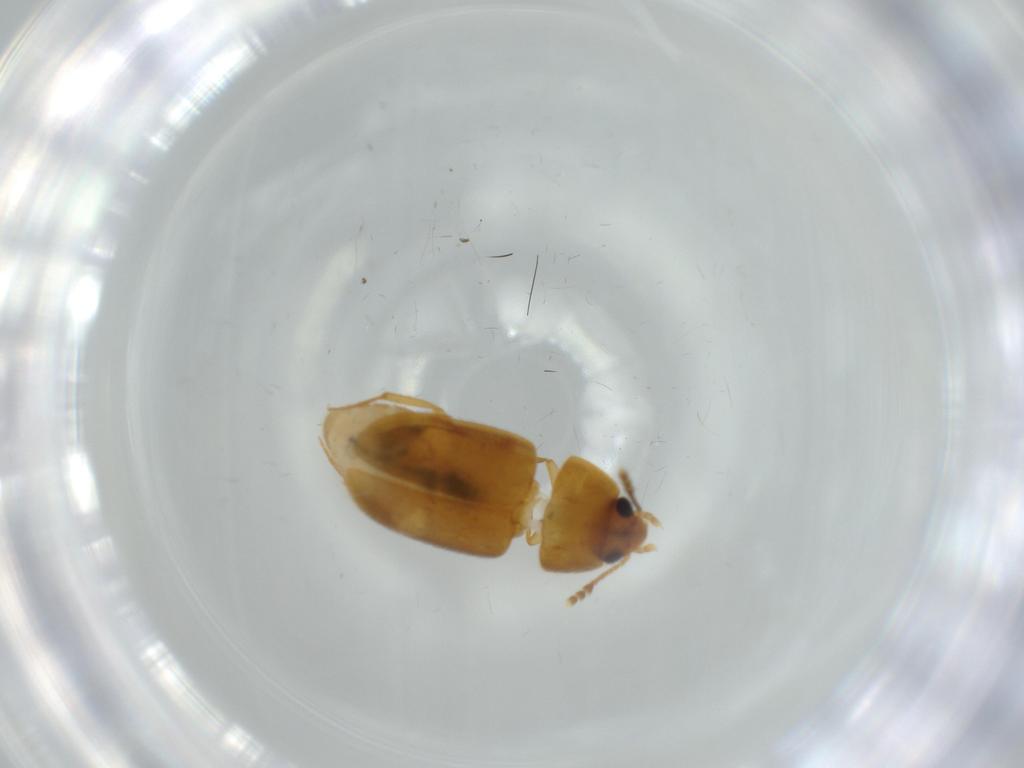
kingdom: Animalia
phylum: Arthropoda
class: Insecta
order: Coleoptera
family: Mycetophagidae
